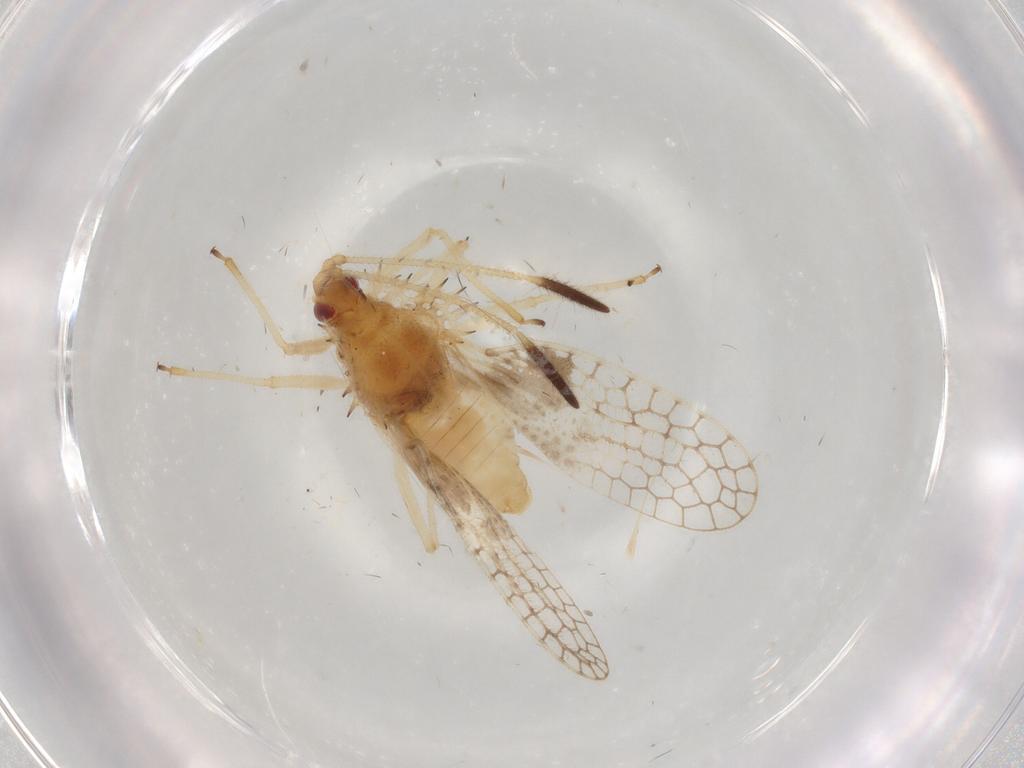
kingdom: Animalia
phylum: Arthropoda
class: Insecta
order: Hemiptera
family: Tingidae
